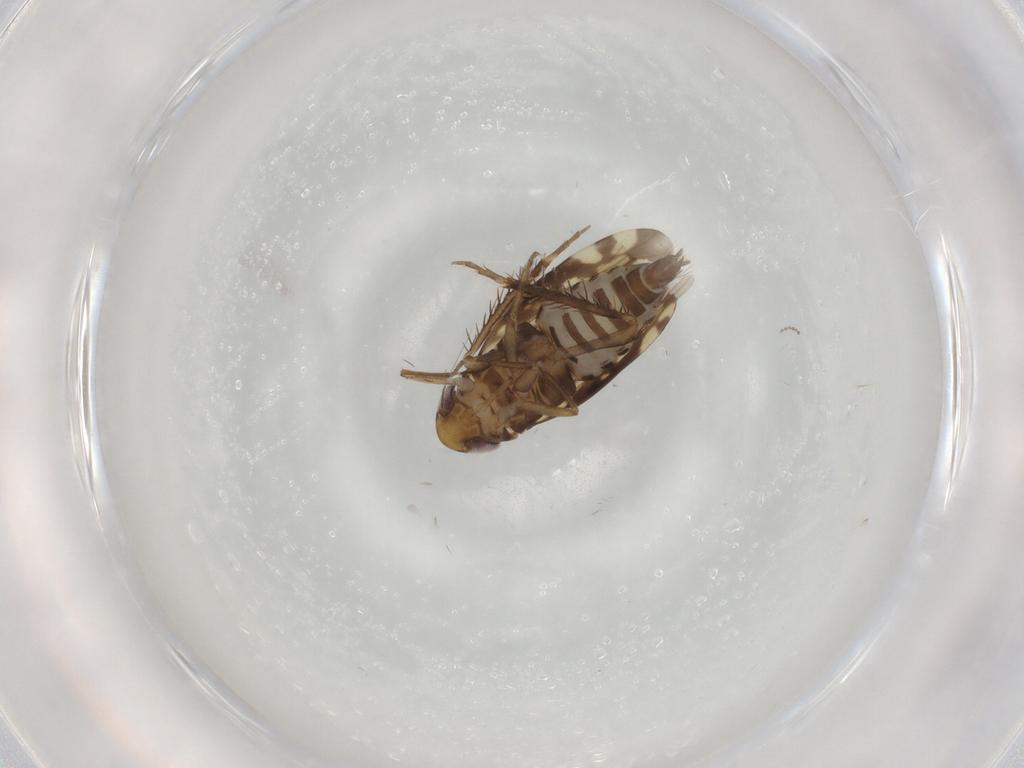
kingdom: Animalia
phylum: Arthropoda
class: Insecta
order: Hemiptera
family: Cicadellidae
